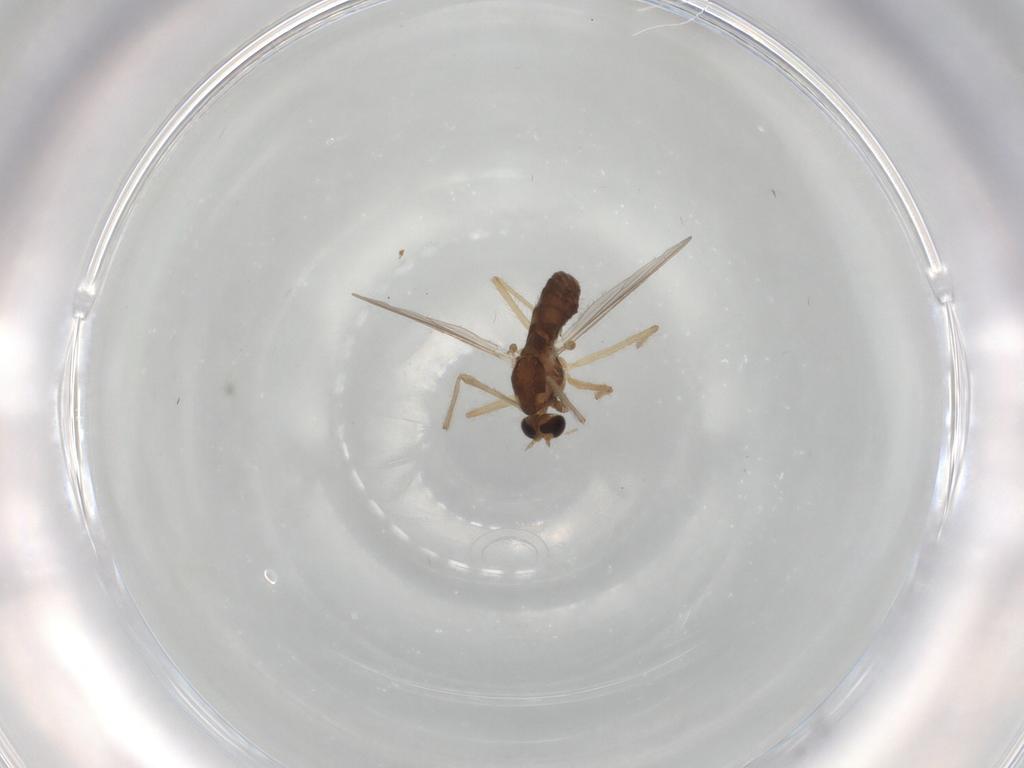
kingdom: Animalia
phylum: Arthropoda
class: Insecta
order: Diptera
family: Chironomidae
